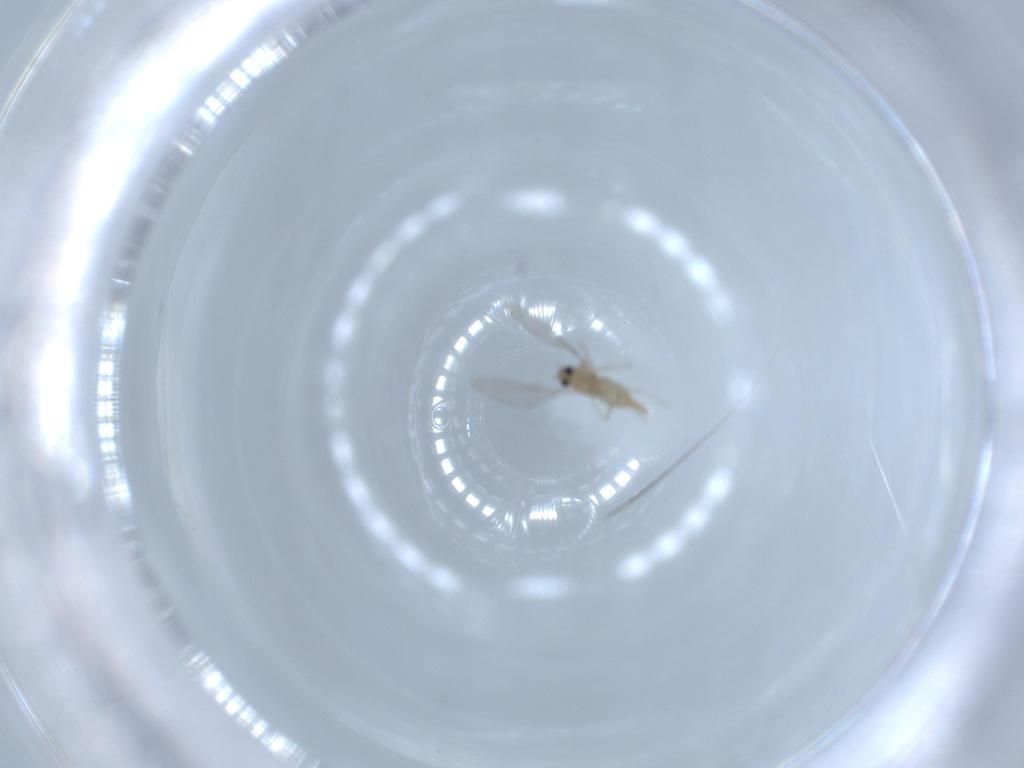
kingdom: Animalia
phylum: Arthropoda
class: Insecta
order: Diptera
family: Cecidomyiidae
